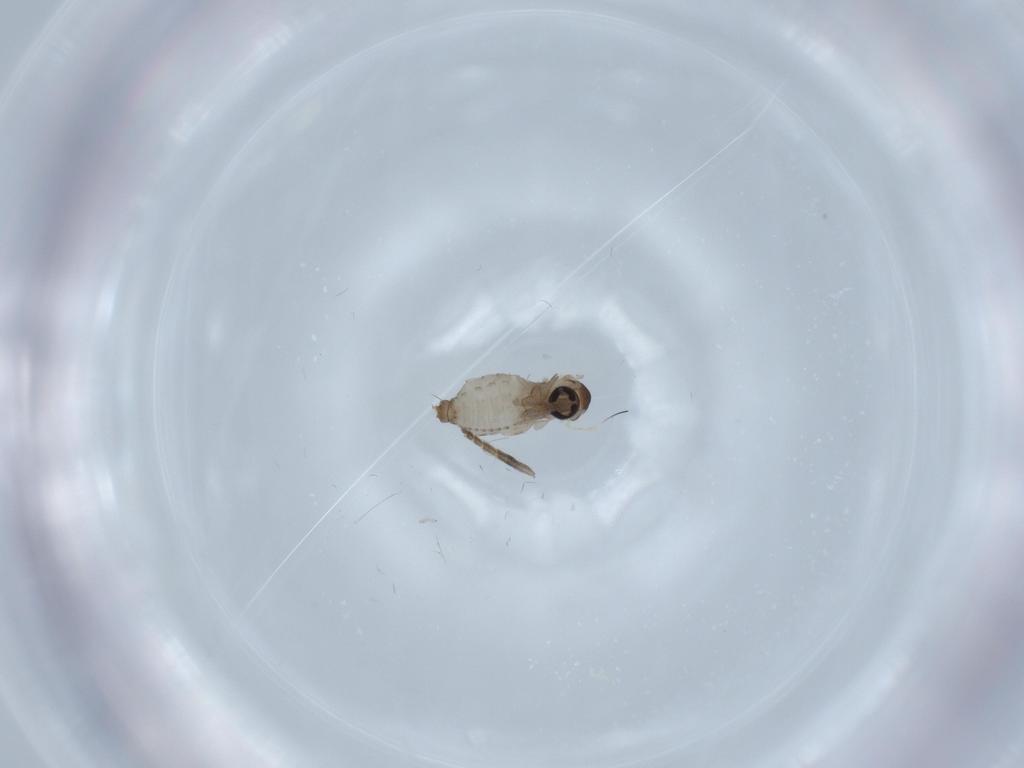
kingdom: Animalia
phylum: Arthropoda
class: Insecta
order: Diptera
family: Psychodidae
